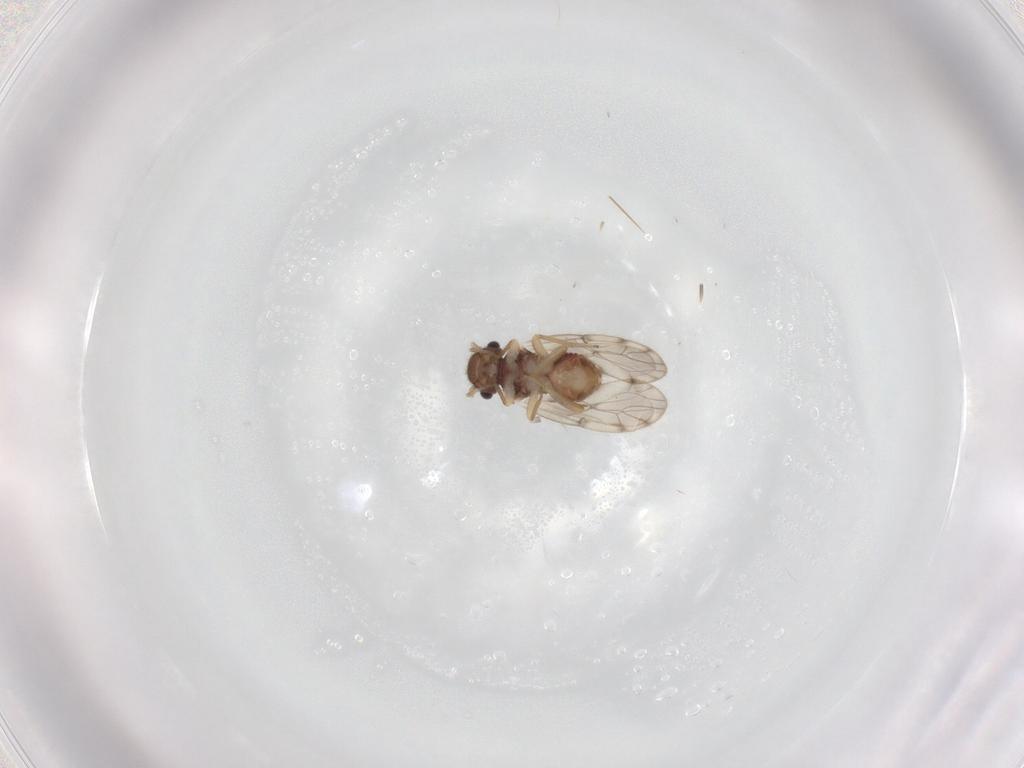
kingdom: Animalia
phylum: Arthropoda
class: Insecta
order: Psocodea
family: Peripsocidae
